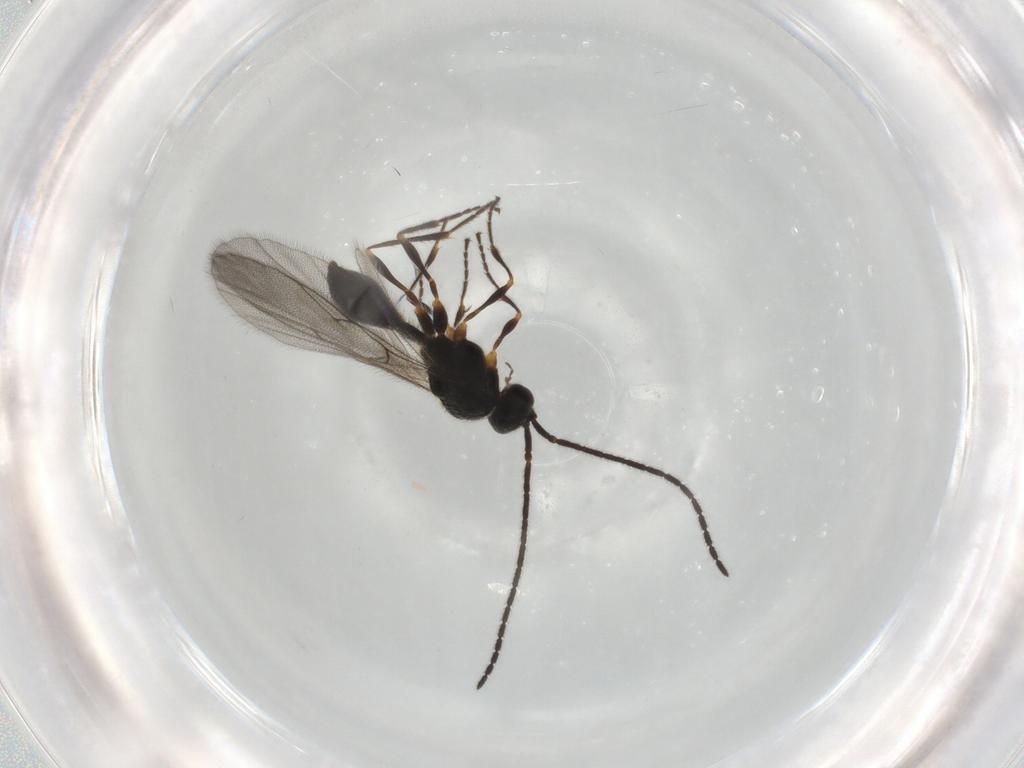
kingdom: Animalia
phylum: Arthropoda
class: Insecta
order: Hymenoptera
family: Diapriidae
